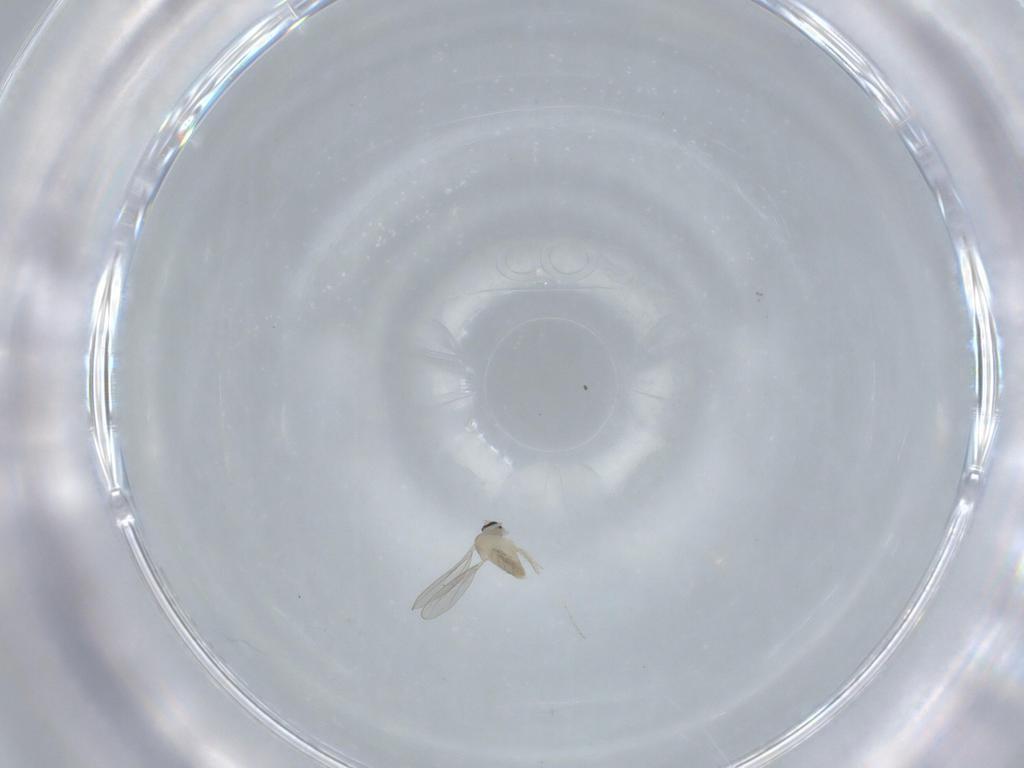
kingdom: Animalia
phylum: Arthropoda
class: Insecta
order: Diptera
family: Cecidomyiidae
